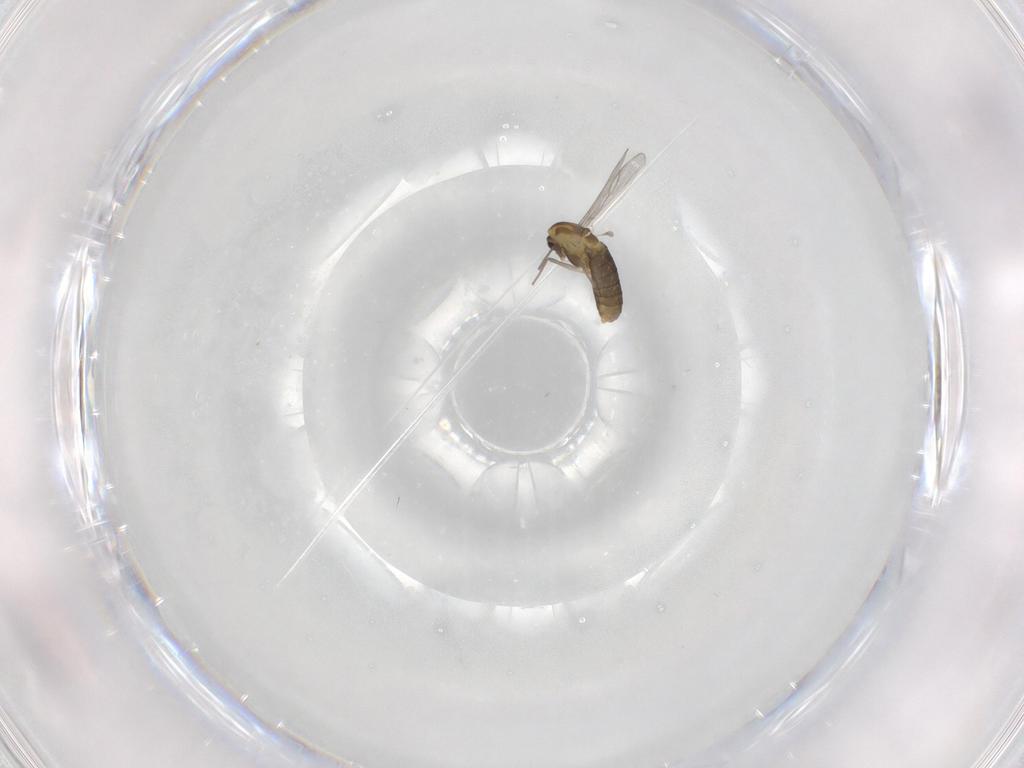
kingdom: Animalia
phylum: Arthropoda
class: Insecta
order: Diptera
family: Chironomidae
